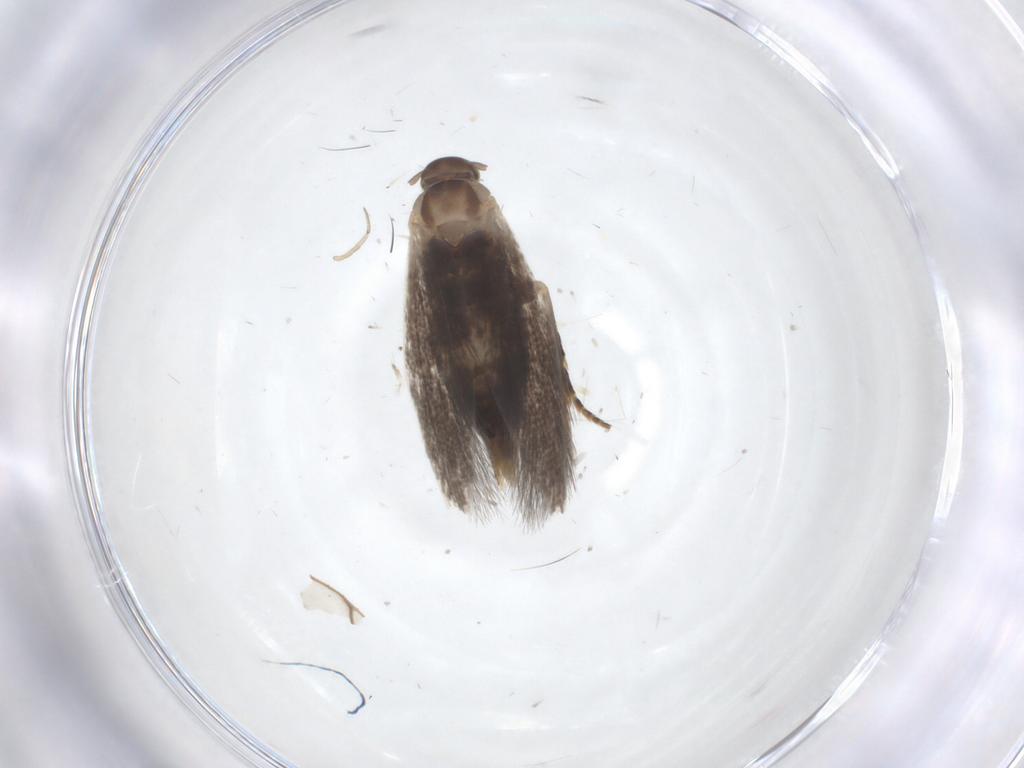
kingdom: Animalia
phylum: Arthropoda
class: Insecta
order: Lepidoptera
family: Elachistidae
